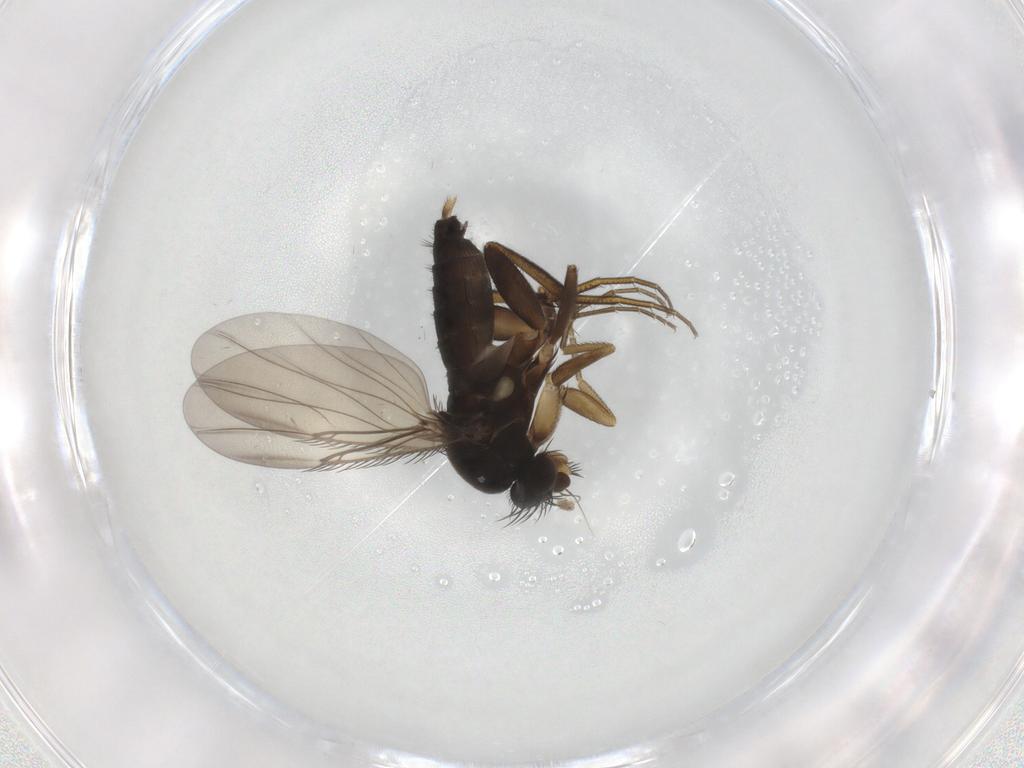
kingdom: Animalia
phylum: Arthropoda
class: Insecta
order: Diptera
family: Phoridae
